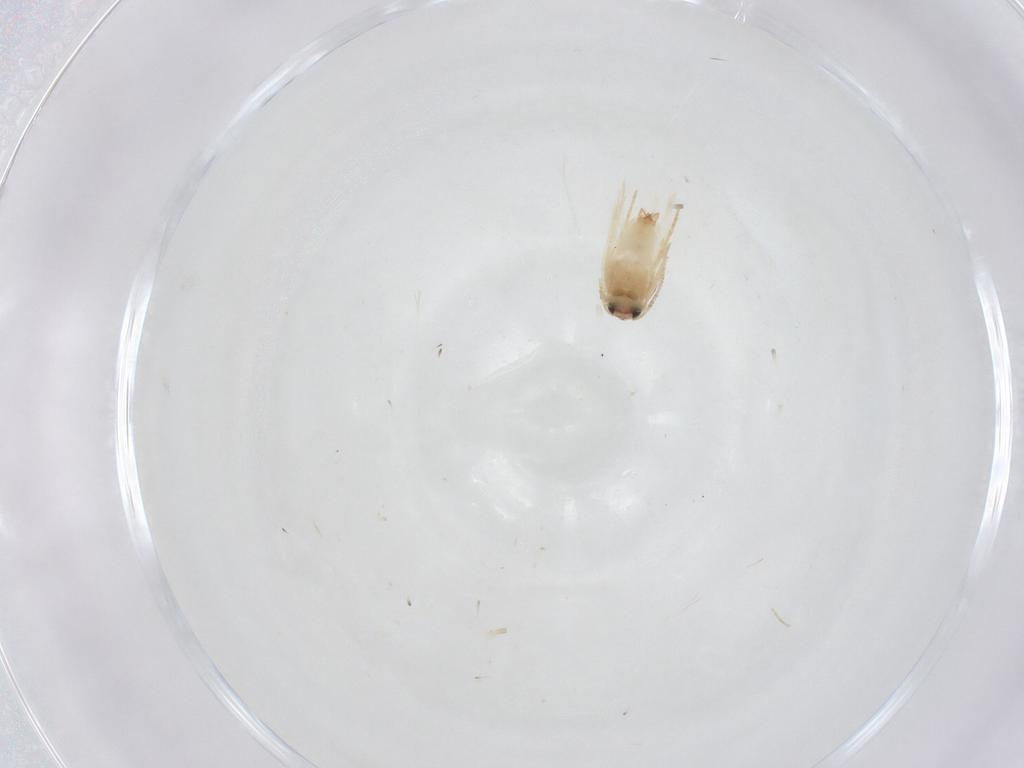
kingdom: Animalia
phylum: Arthropoda
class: Insecta
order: Lepidoptera
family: Crambidae
